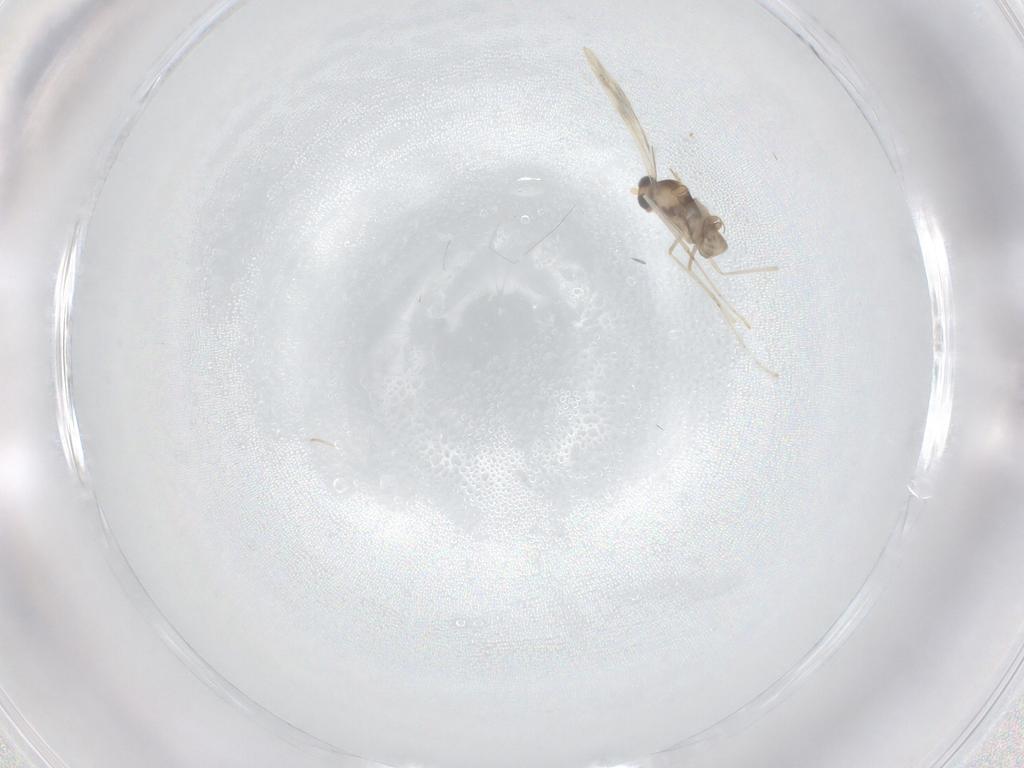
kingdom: Animalia
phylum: Arthropoda
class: Insecta
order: Diptera
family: Cecidomyiidae
